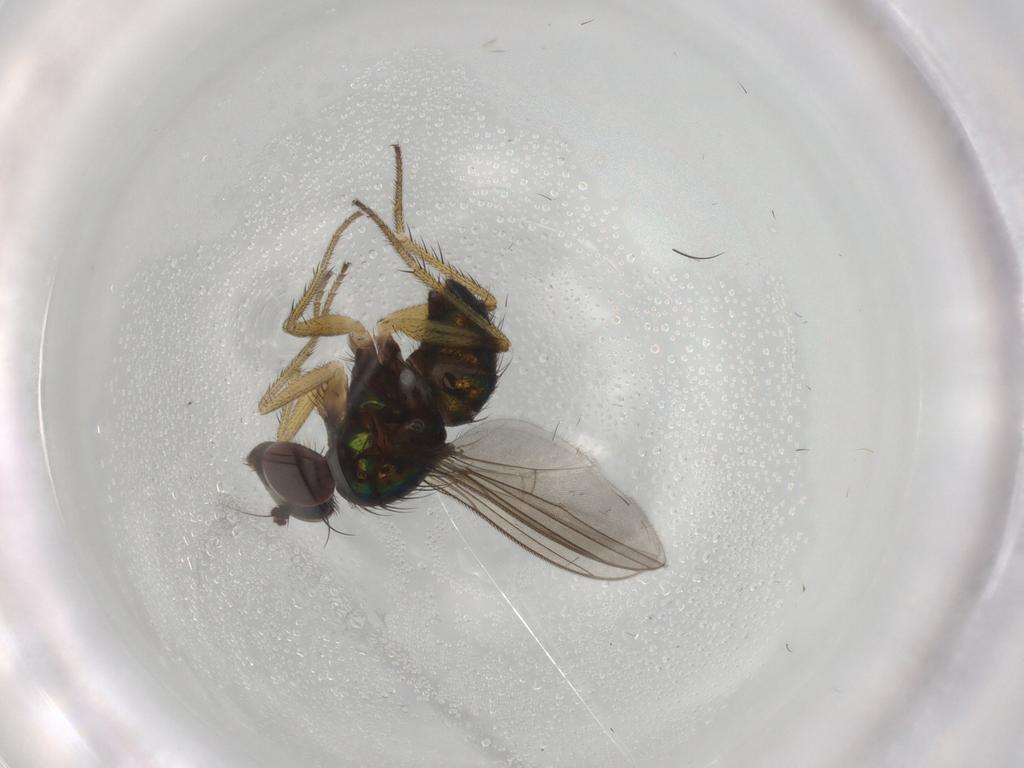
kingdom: Animalia
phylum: Arthropoda
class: Insecta
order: Diptera
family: Dolichopodidae
